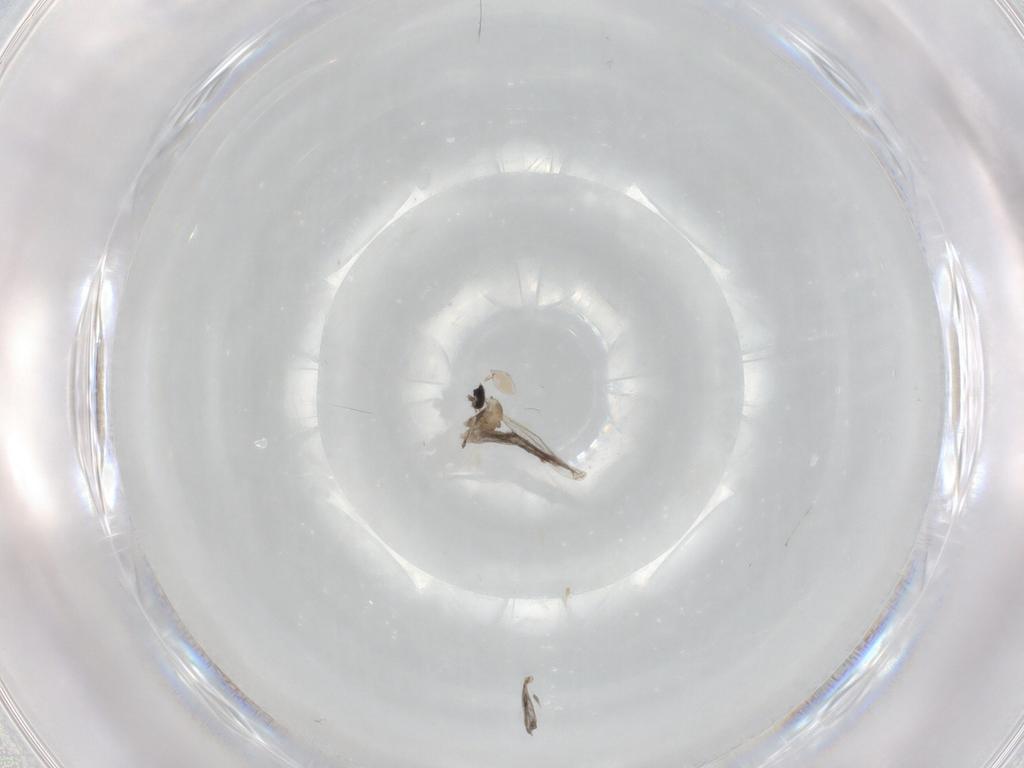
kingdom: Animalia
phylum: Arthropoda
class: Insecta
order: Diptera
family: Cecidomyiidae
